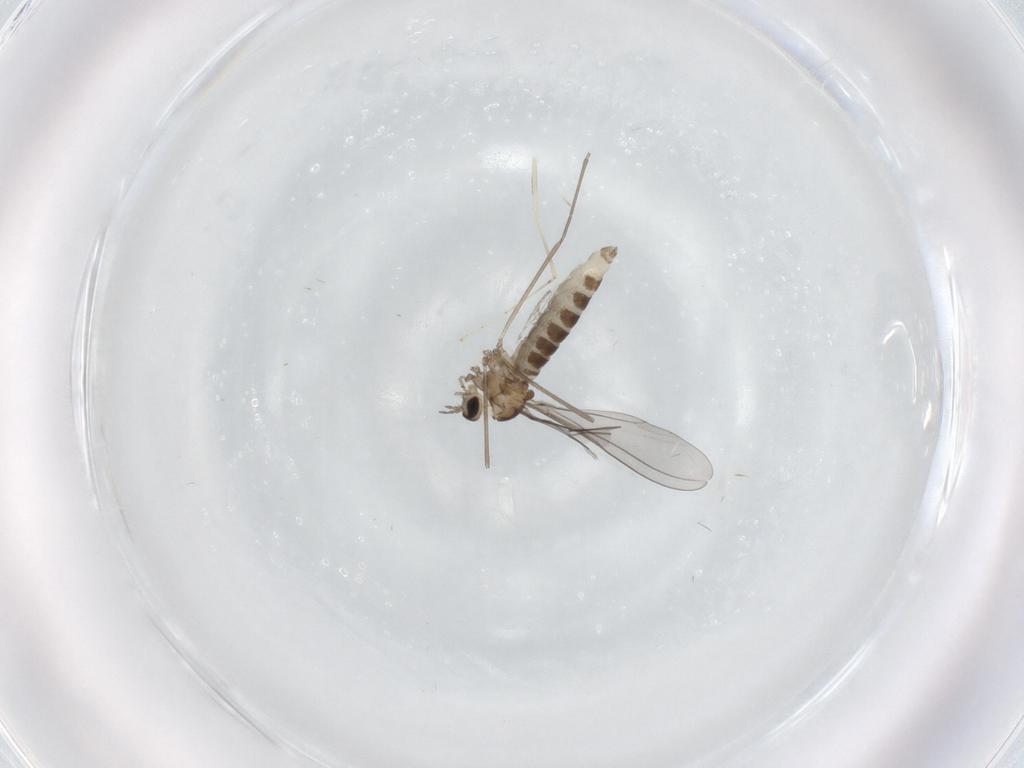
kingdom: Animalia
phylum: Arthropoda
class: Insecta
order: Diptera
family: Cecidomyiidae
